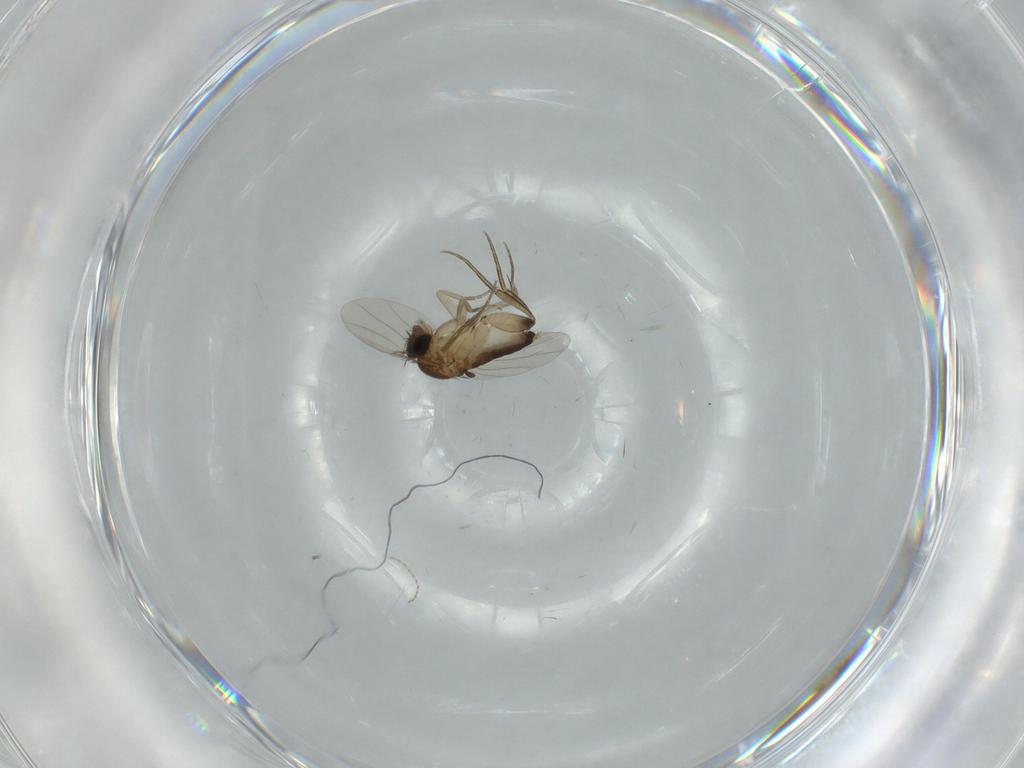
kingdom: Animalia
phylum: Arthropoda
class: Insecta
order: Diptera
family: Phoridae
